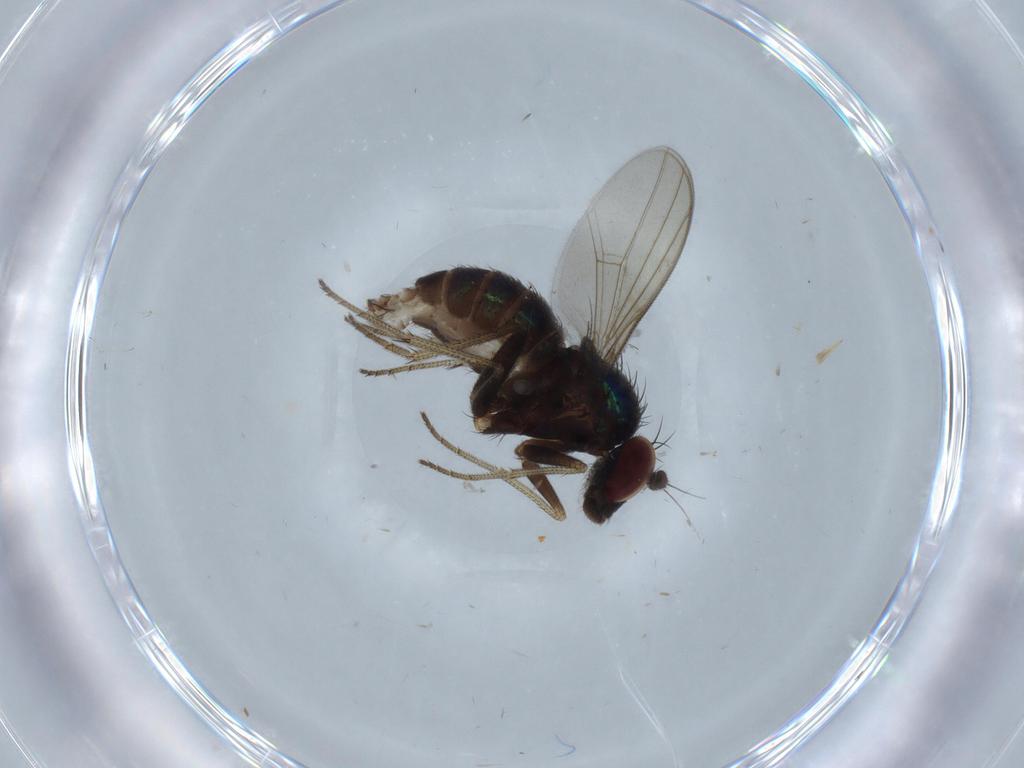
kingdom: Animalia
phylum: Arthropoda
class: Insecta
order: Diptera
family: Dolichopodidae
